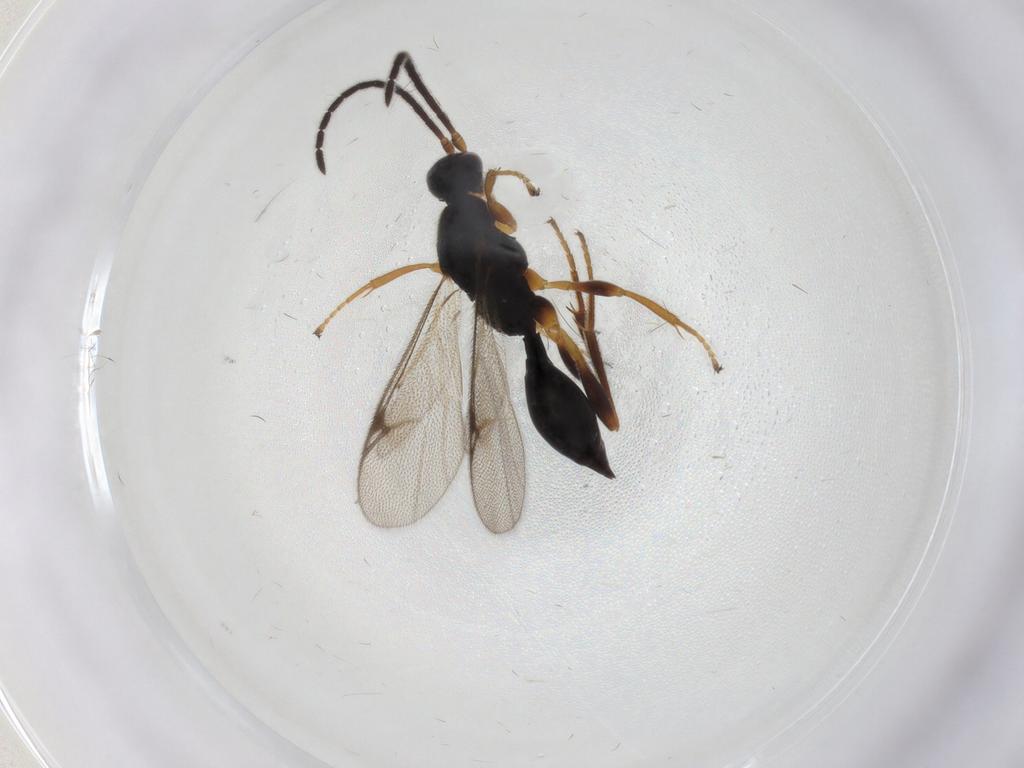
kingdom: Animalia
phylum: Arthropoda
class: Insecta
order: Hymenoptera
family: Proctotrupidae
